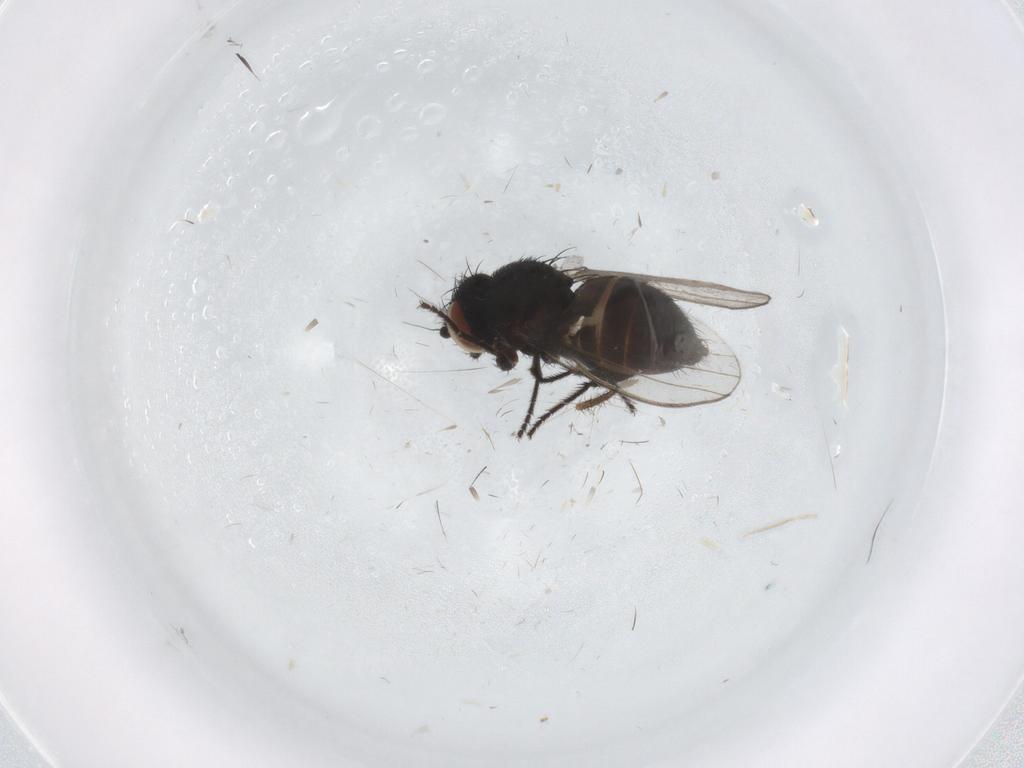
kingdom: Animalia
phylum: Arthropoda
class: Insecta
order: Diptera
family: Milichiidae
